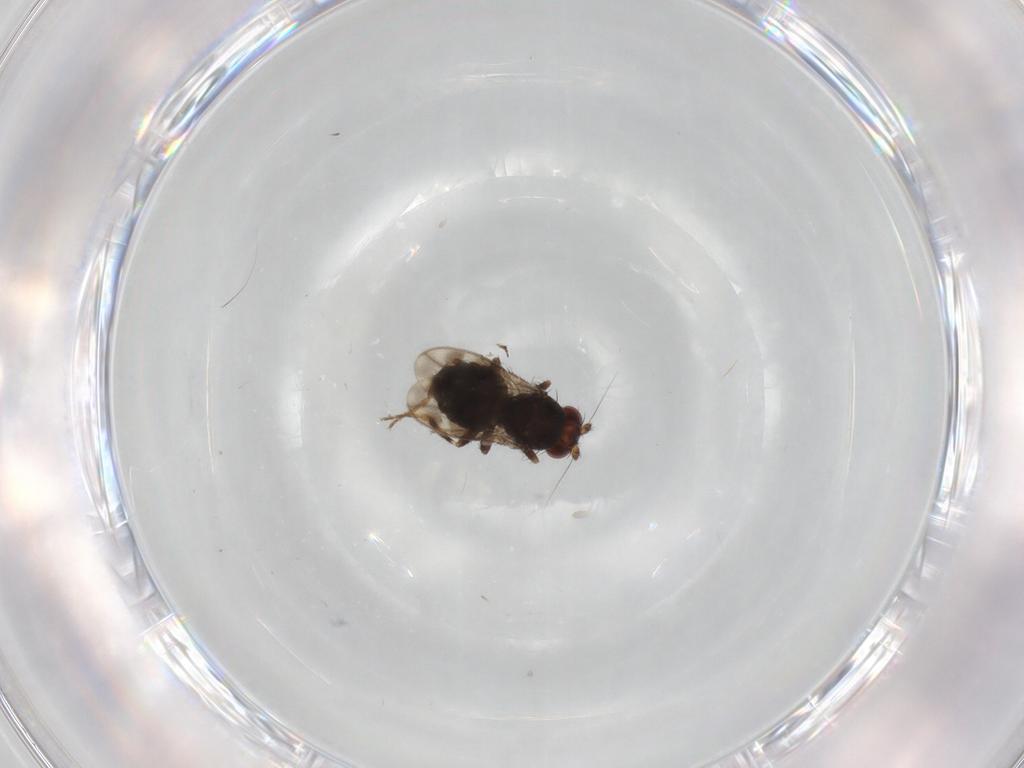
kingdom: Animalia
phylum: Arthropoda
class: Insecta
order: Diptera
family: Sphaeroceridae
